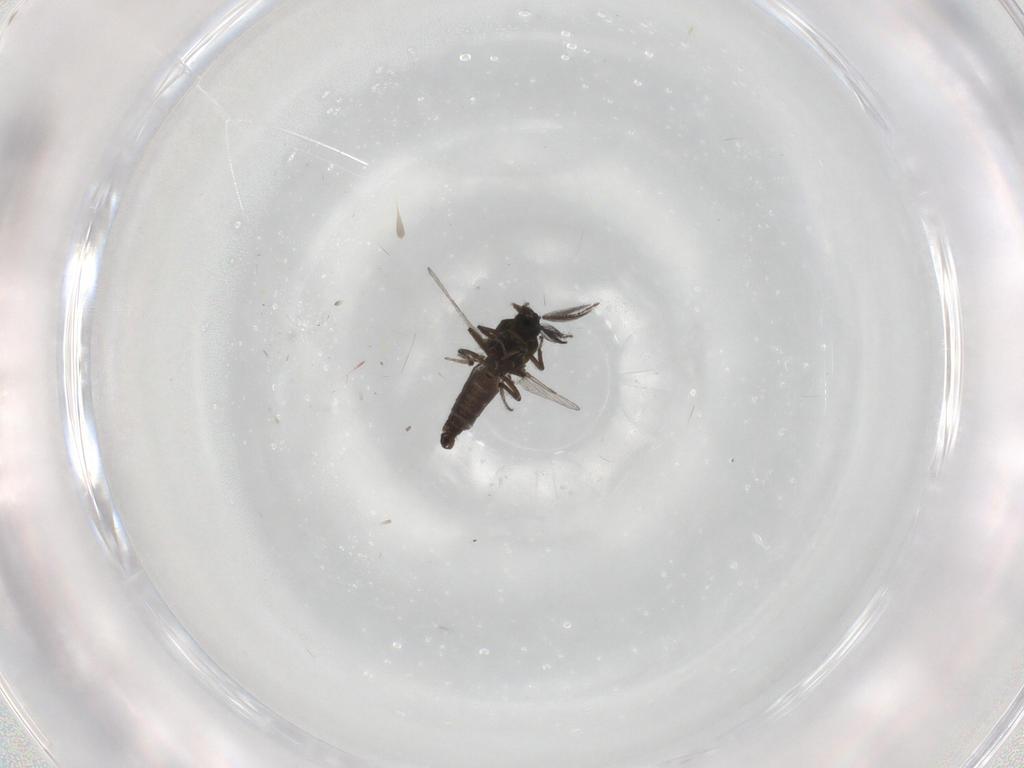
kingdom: Animalia
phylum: Arthropoda
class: Insecta
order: Diptera
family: Ceratopogonidae
